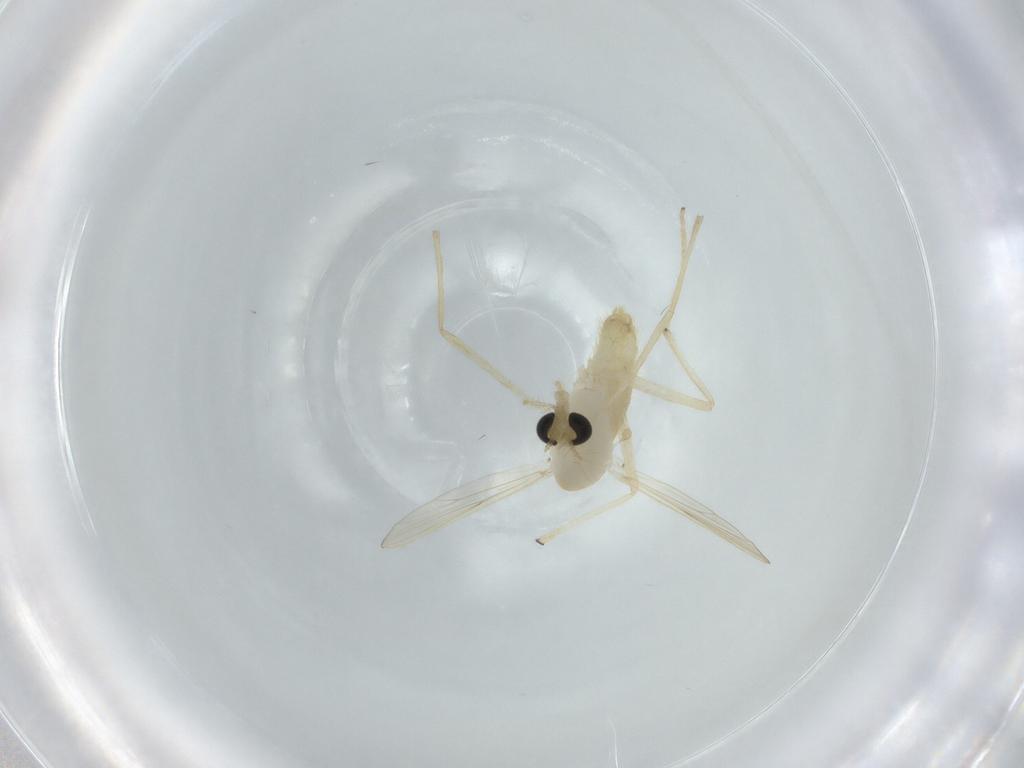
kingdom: Animalia
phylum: Arthropoda
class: Insecta
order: Diptera
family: Chironomidae
